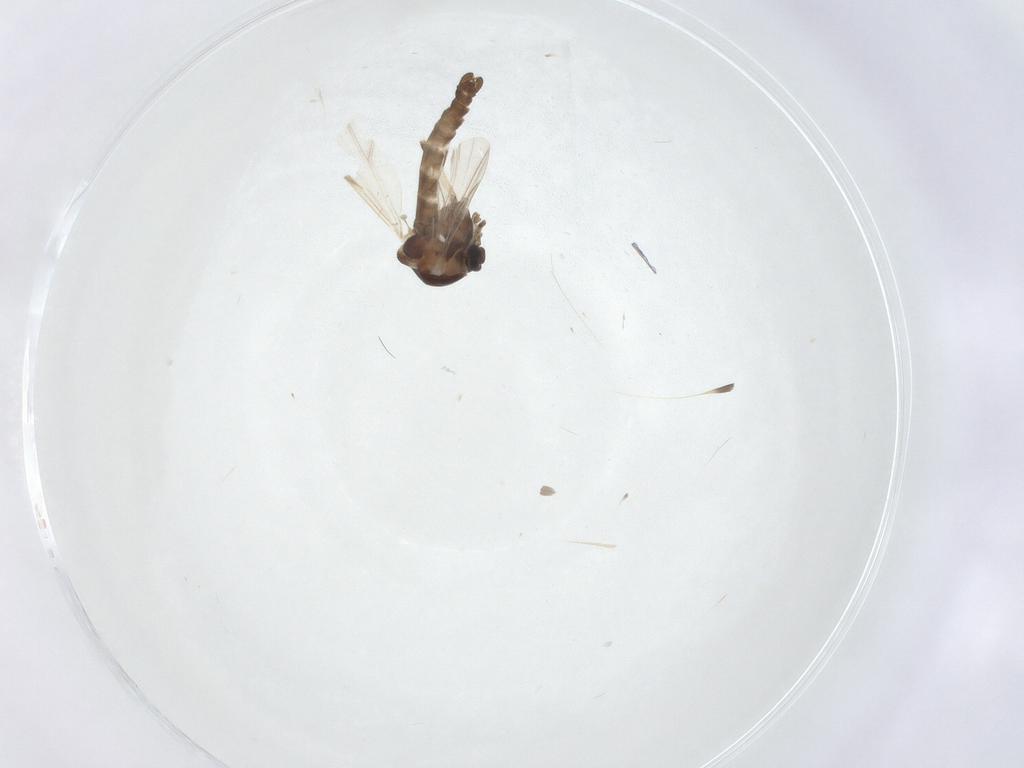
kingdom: Animalia
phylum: Arthropoda
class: Insecta
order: Diptera
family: Ceratopogonidae
